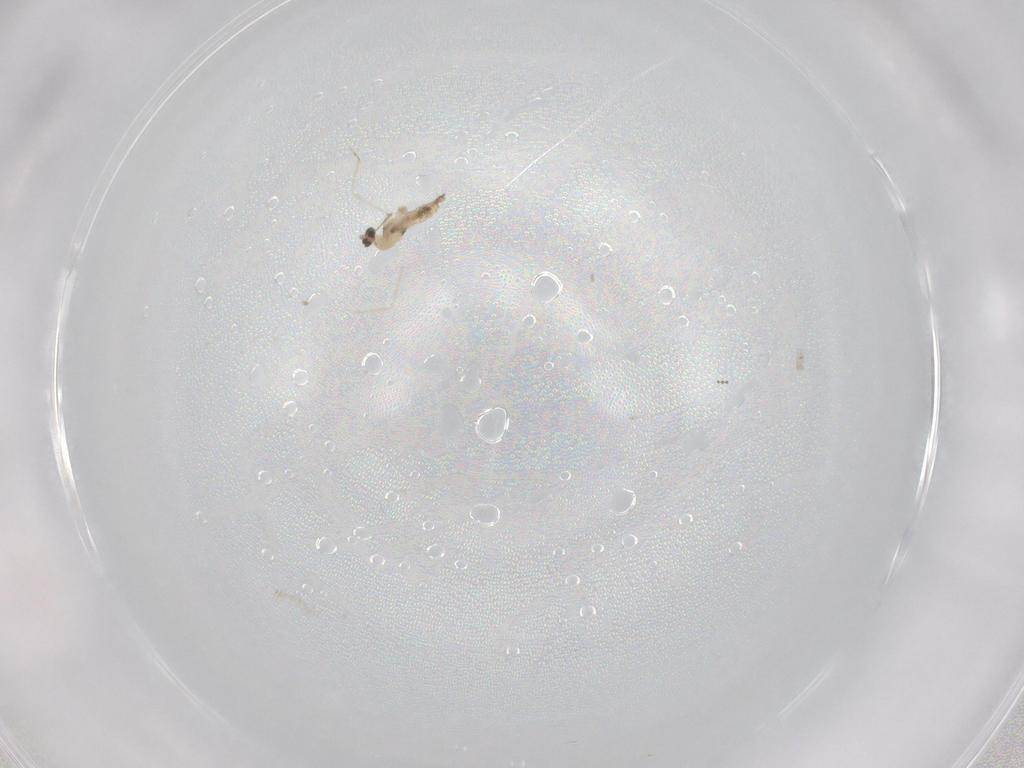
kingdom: Animalia
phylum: Arthropoda
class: Insecta
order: Diptera
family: Cecidomyiidae
